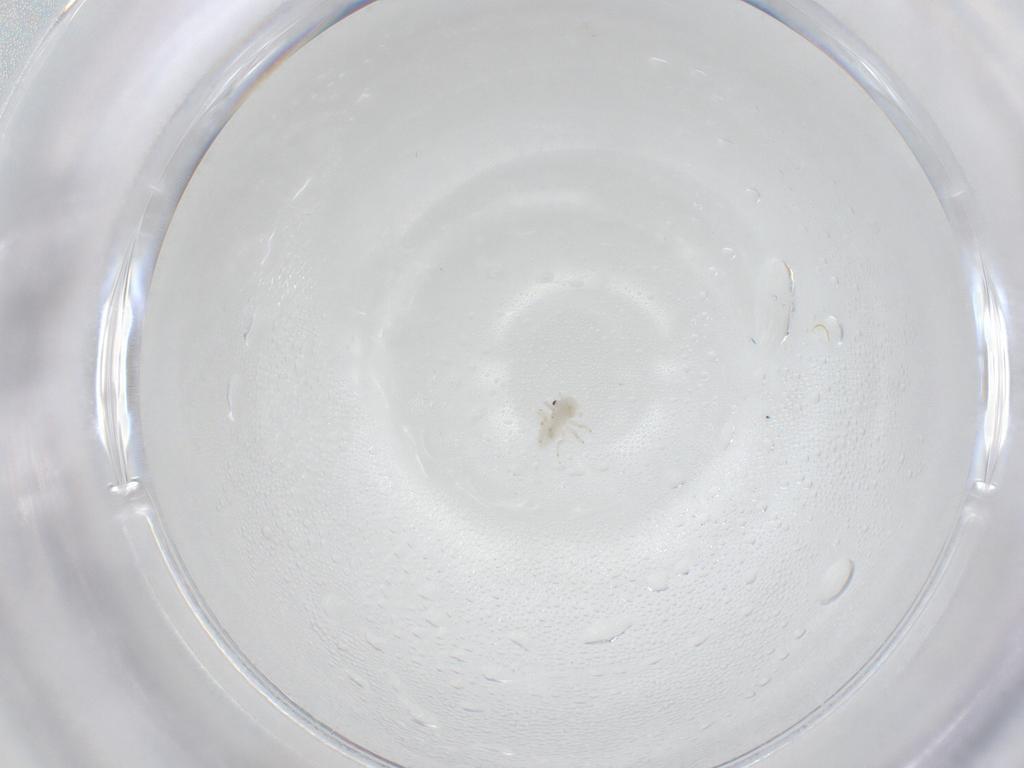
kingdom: Animalia
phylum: Arthropoda
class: Insecta
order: Psocodea
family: Caeciliusidae
